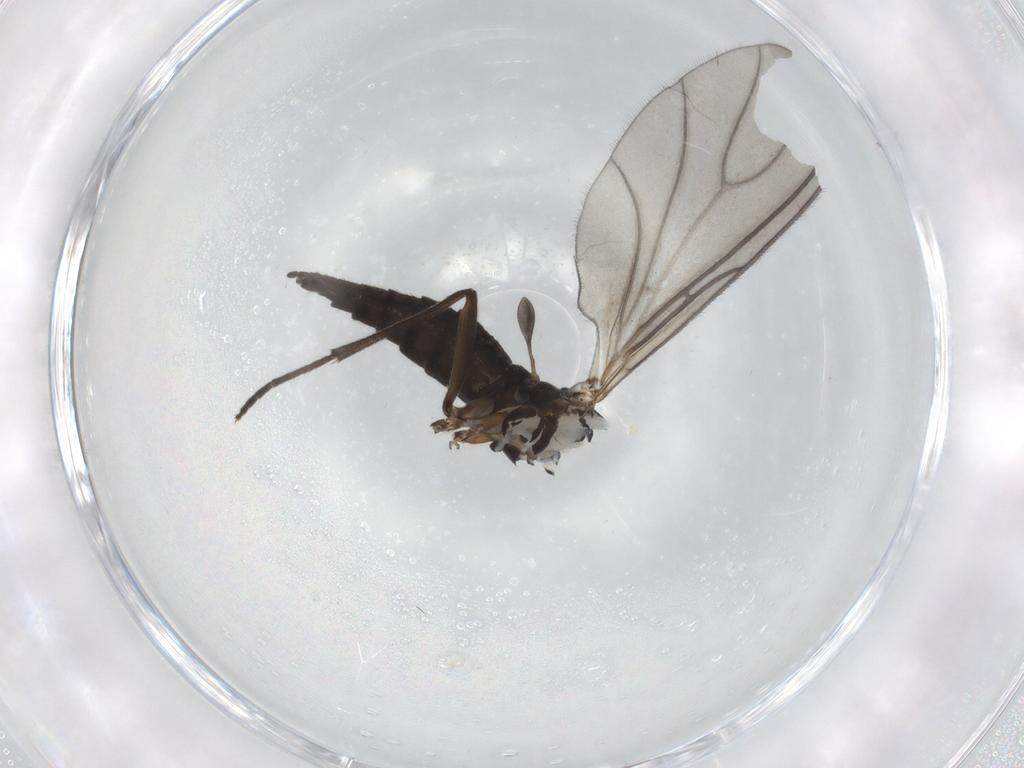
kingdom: Animalia
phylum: Arthropoda
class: Insecta
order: Diptera
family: Sciaridae
